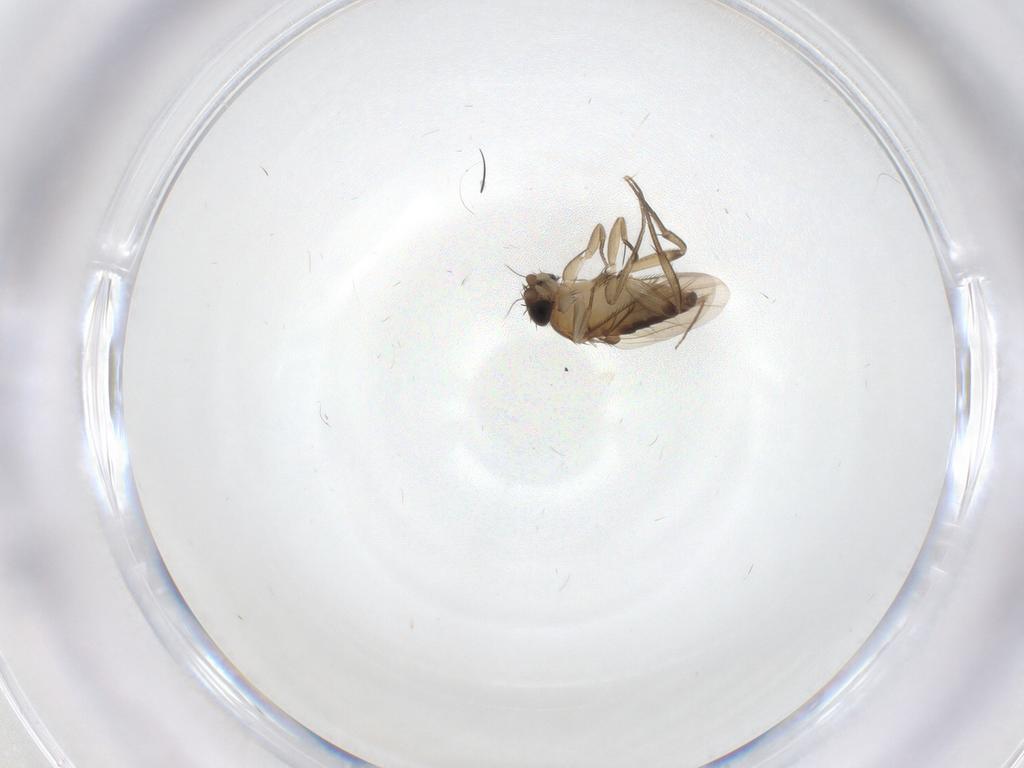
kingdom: Animalia
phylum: Arthropoda
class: Insecta
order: Diptera
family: Phoridae
